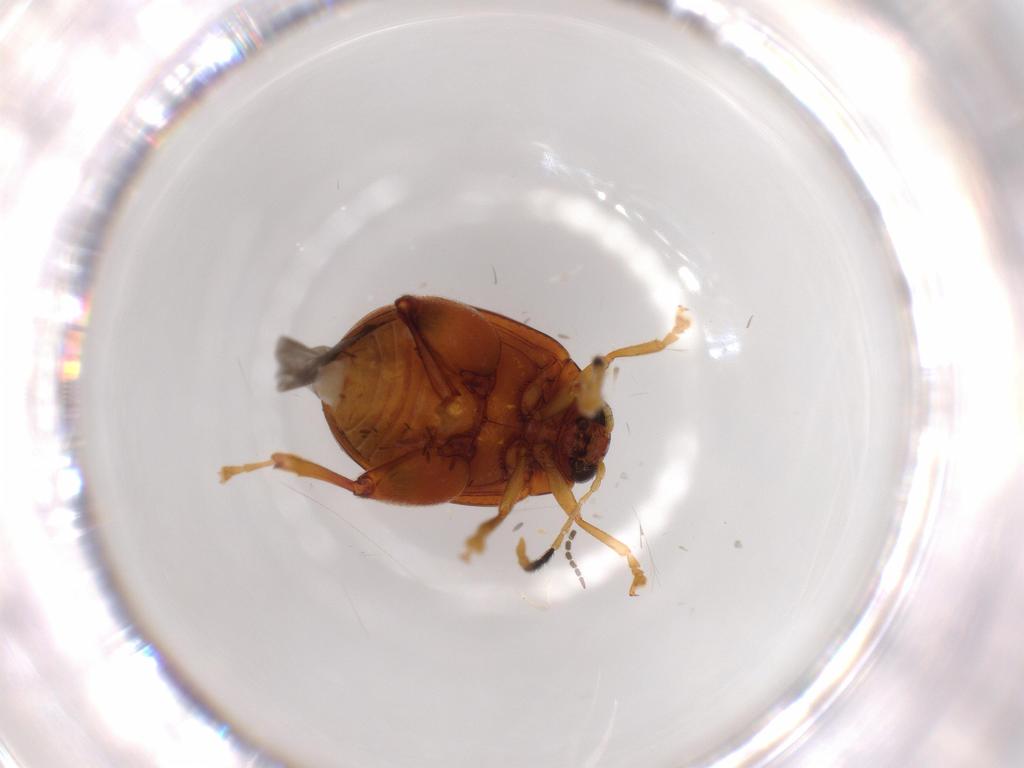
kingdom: Animalia
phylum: Arthropoda
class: Insecta
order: Coleoptera
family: Chrysomelidae
